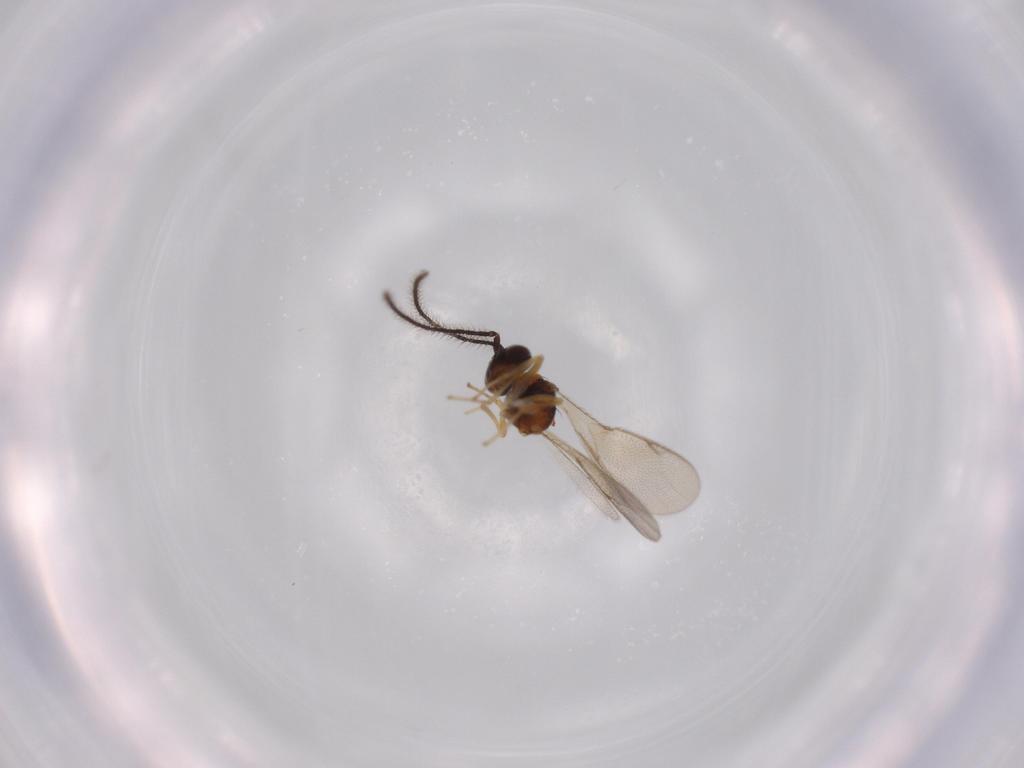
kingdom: Animalia
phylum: Arthropoda
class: Insecta
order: Hymenoptera
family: Diparidae
